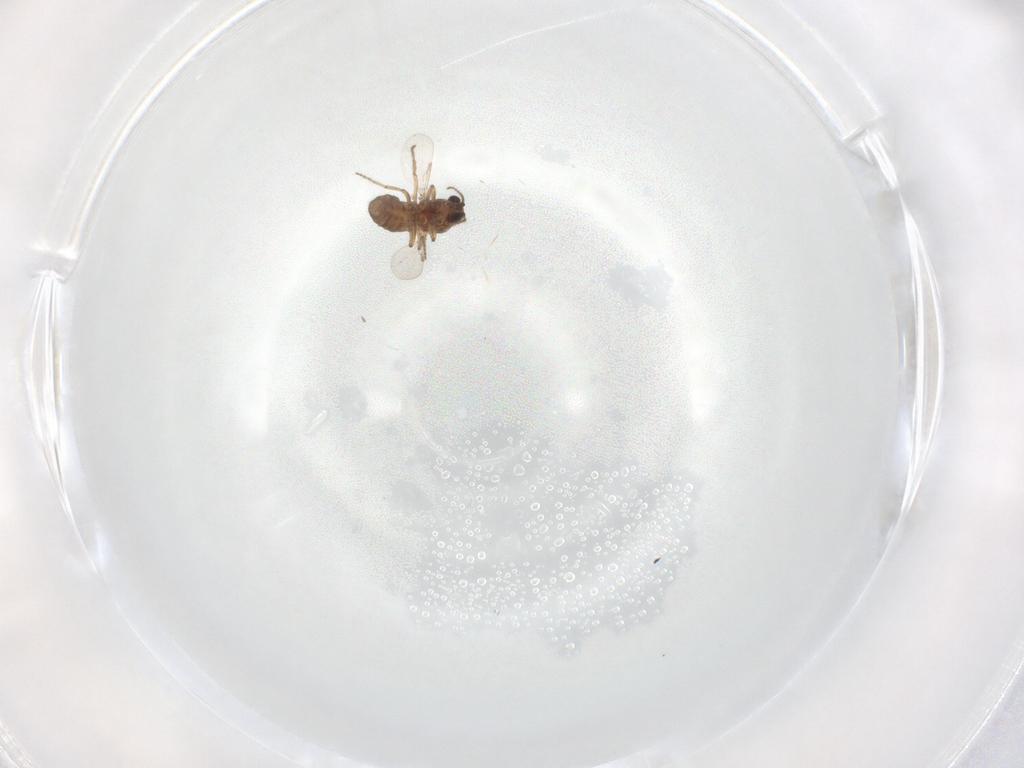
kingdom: Animalia
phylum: Arthropoda
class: Insecta
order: Diptera
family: Ceratopogonidae
